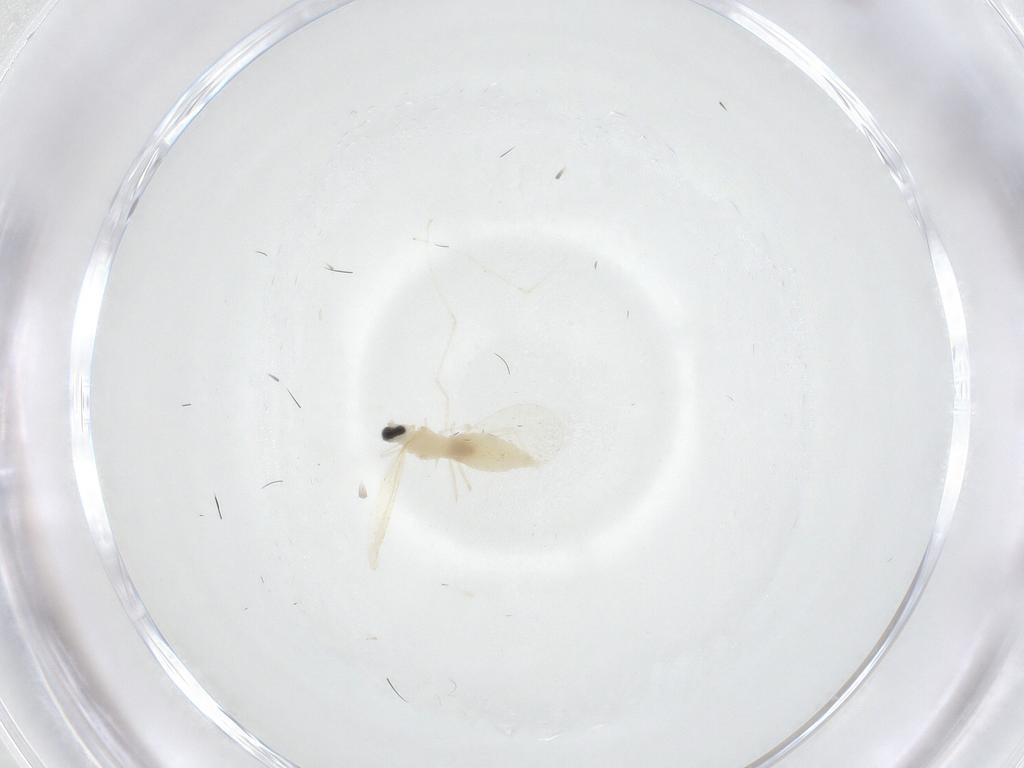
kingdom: Animalia
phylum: Arthropoda
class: Insecta
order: Diptera
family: Cecidomyiidae
